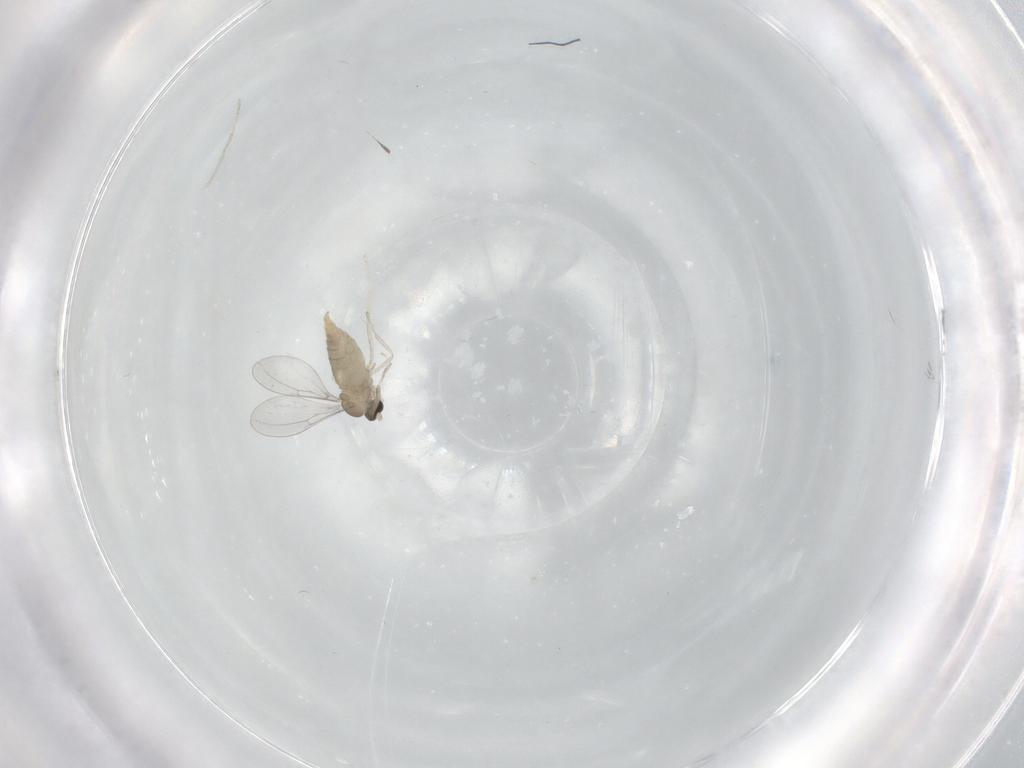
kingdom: Animalia
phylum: Arthropoda
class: Insecta
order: Diptera
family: Cecidomyiidae
